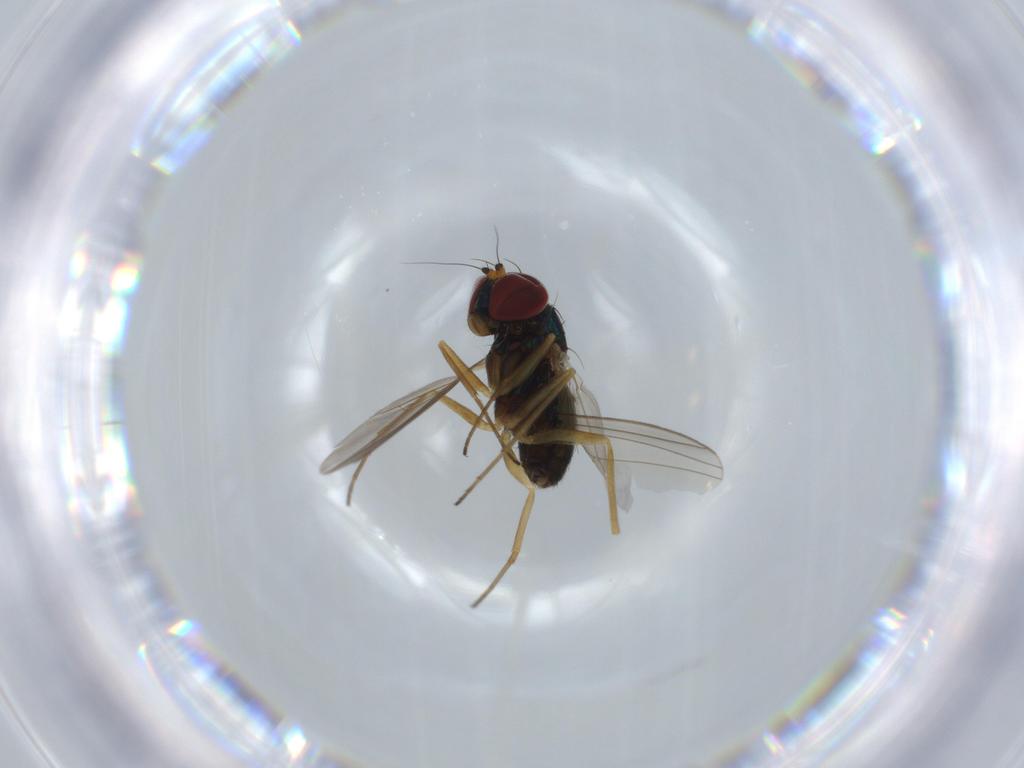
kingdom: Animalia
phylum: Arthropoda
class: Insecta
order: Diptera
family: Dolichopodidae
